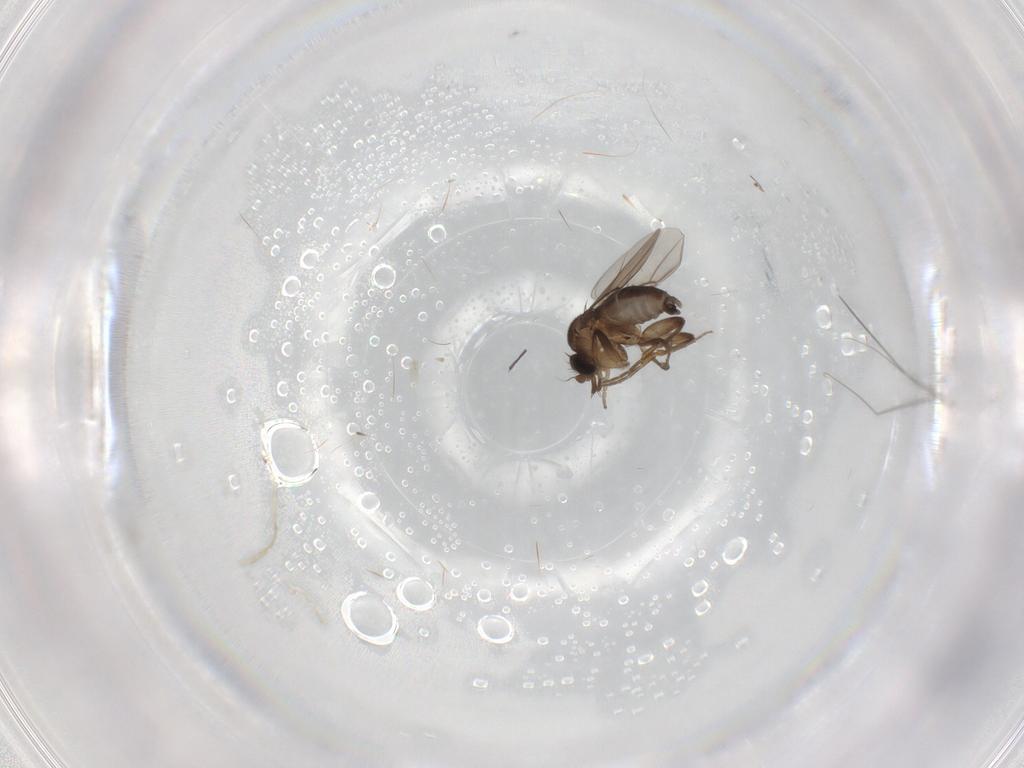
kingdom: Animalia
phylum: Arthropoda
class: Insecta
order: Diptera
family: Phoridae
